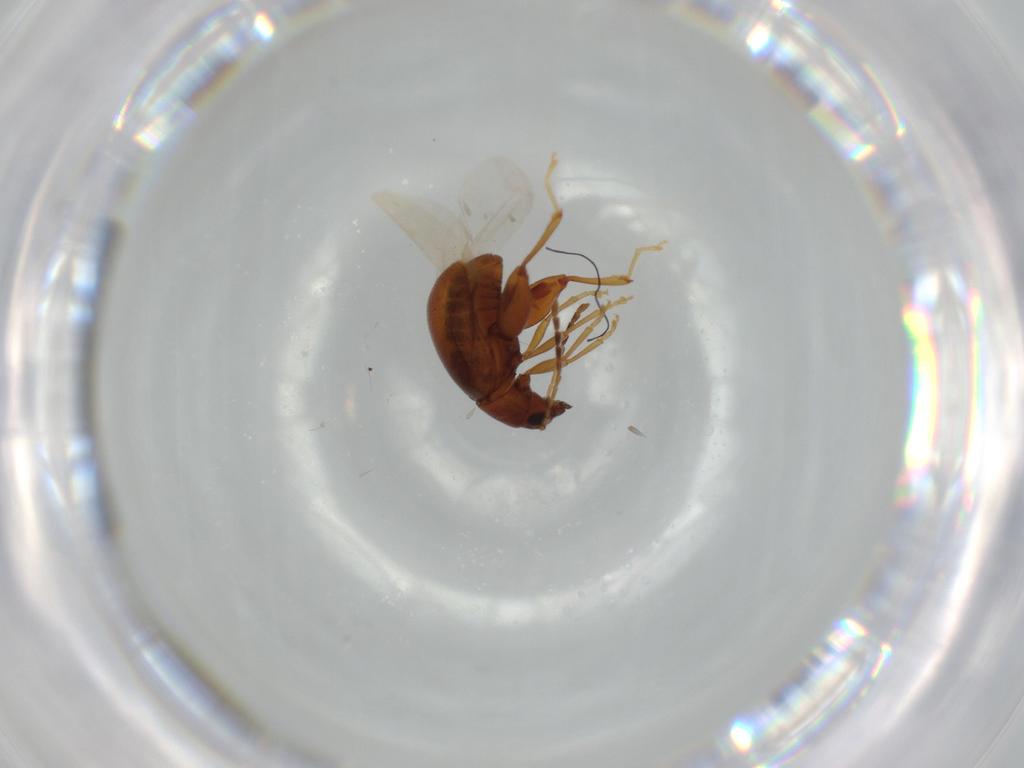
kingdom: Animalia
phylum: Arthropoda
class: Insecta
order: Coleoptera
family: Chrysomelidae
